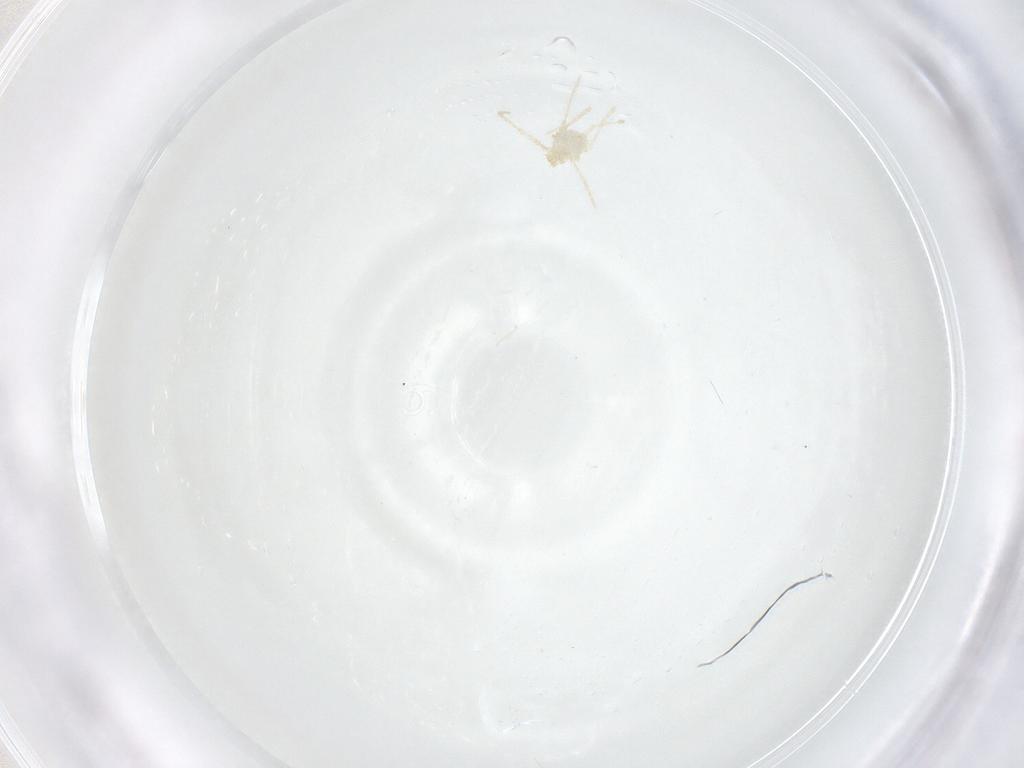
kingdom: Animalia
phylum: Arthropoda
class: Arachnida
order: Trombidiformes
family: Erythraeidae
